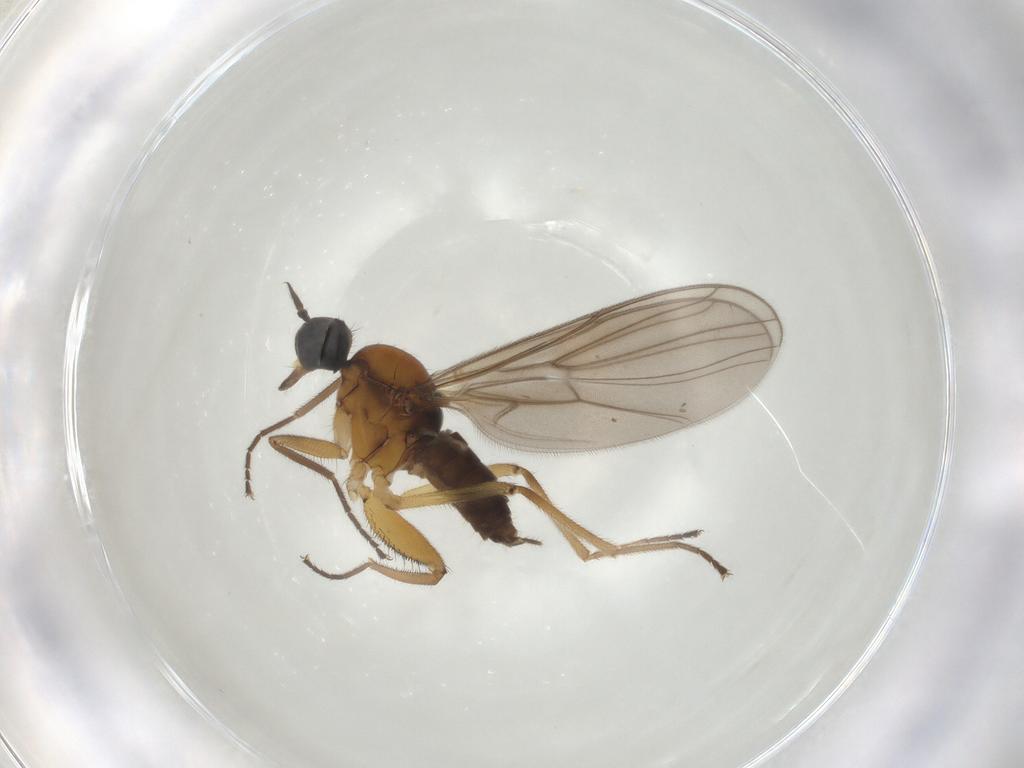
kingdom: Animalia
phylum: Arthropoda
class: Insecta
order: Diptera
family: Hybotidae
